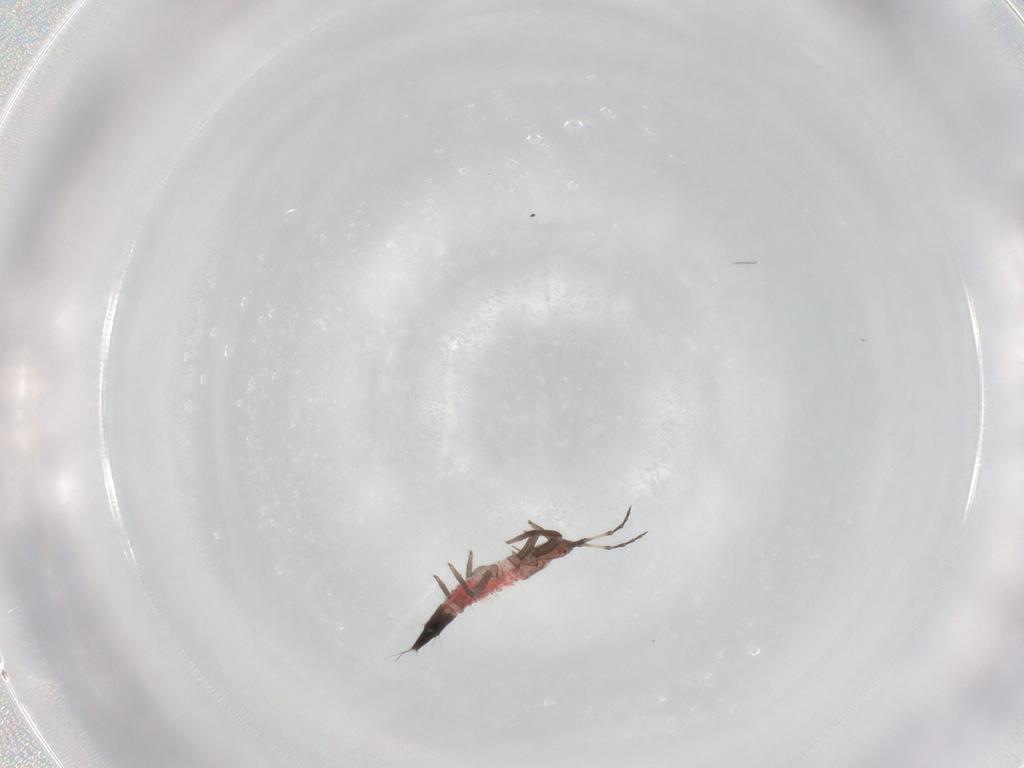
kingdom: Animalia
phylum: Arthropoda
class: Insecta
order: Thysanoptera
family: Phlaeothripidae
